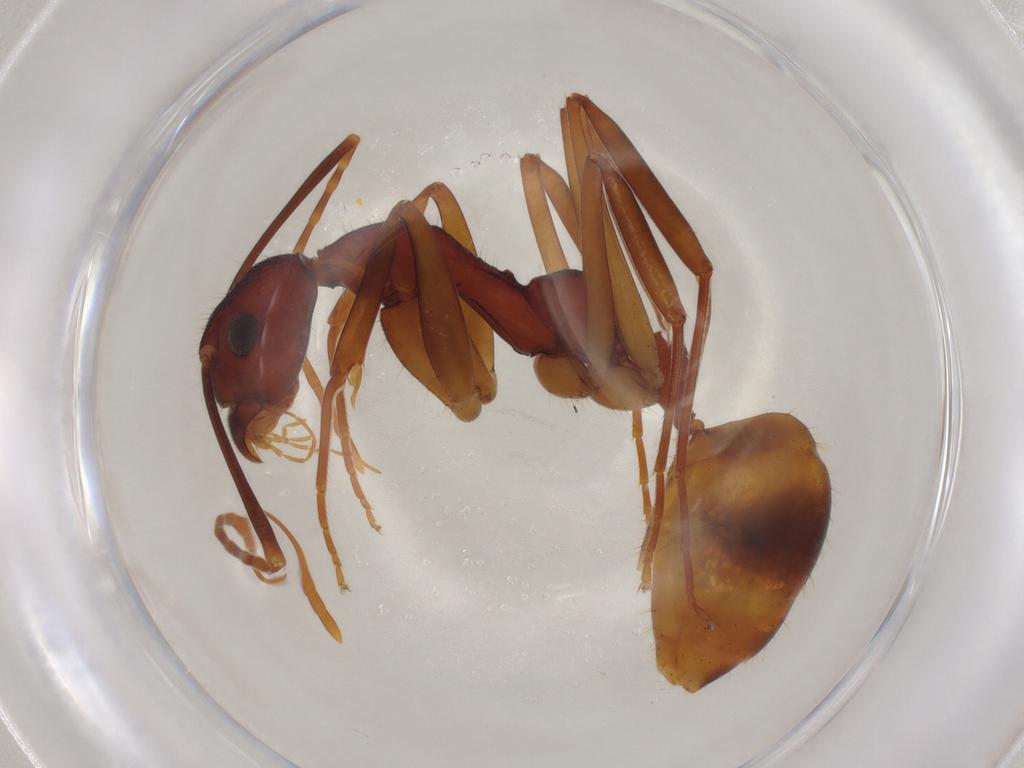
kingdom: Animalia
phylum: Arthropoda
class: Insecta
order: Hymenoptera
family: Formicidae
